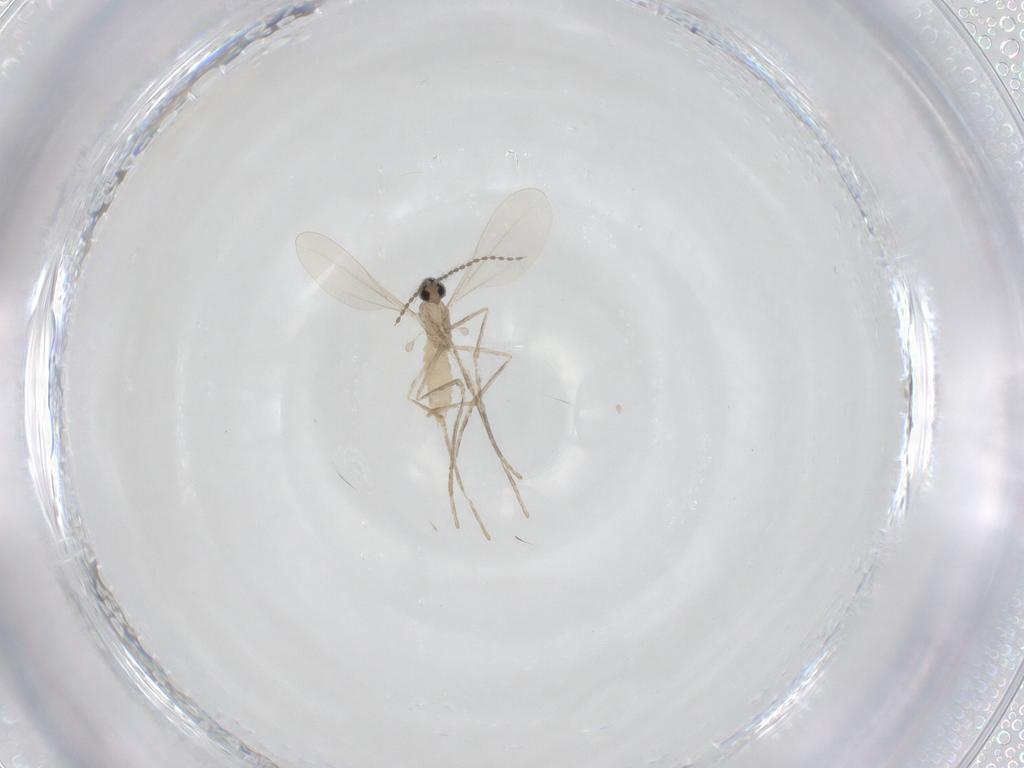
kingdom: Animalia
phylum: Arthropoda
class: Insecta
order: Diptera
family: Cecidomyiidae
